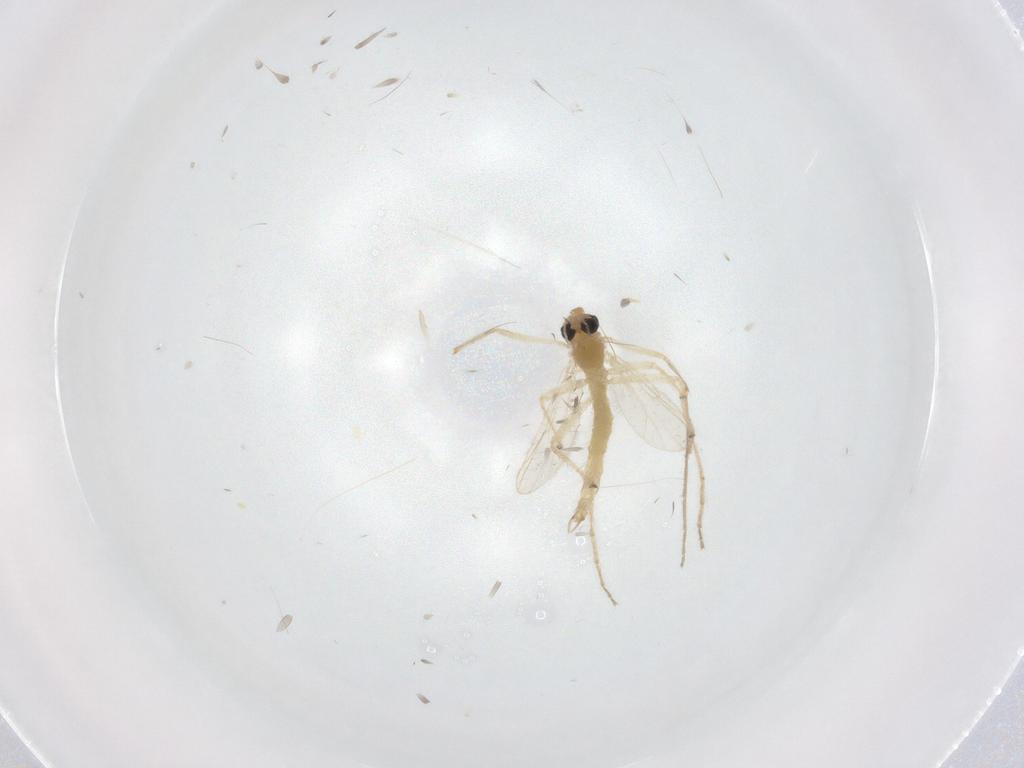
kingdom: Animalia
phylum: Arthropoda
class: Insecta
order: Diptera
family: Chironomidae
